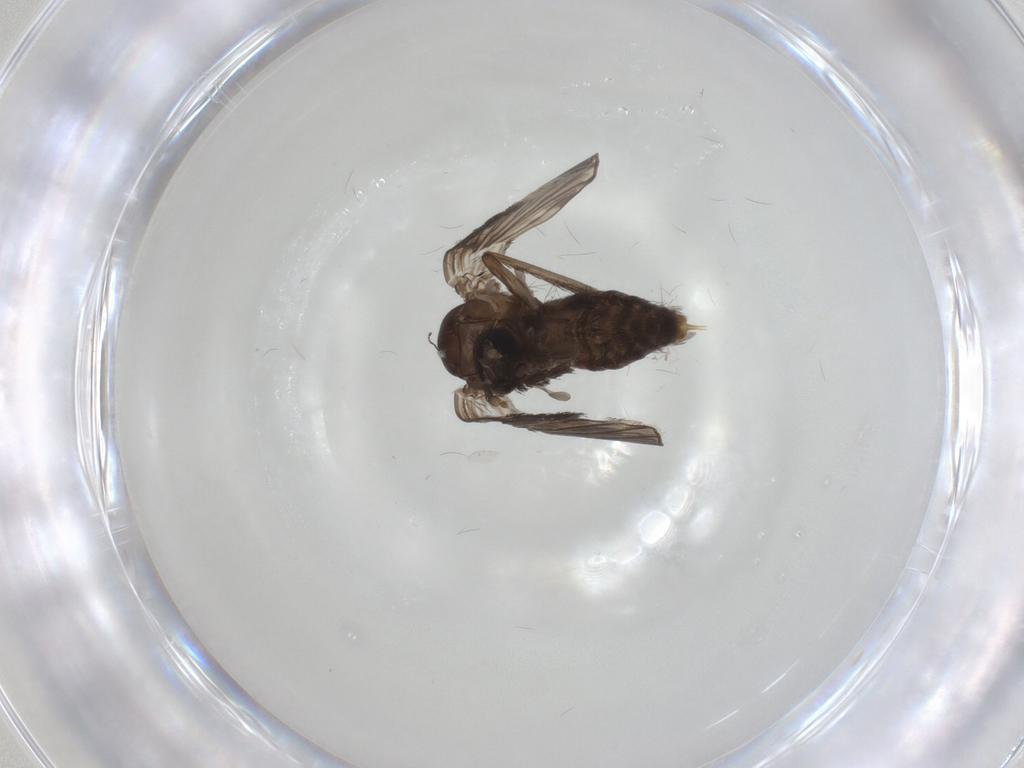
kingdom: Animalia
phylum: Arthropoda
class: Insecta
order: Diptera
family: Psychodidae
